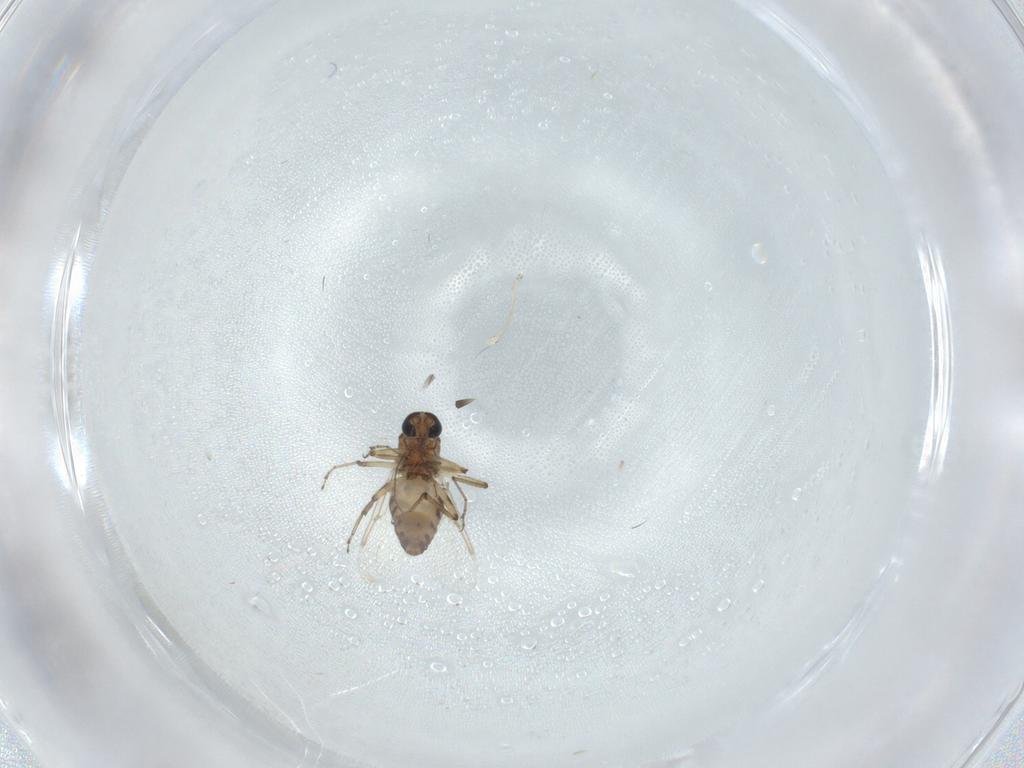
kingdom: Animalia
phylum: Arthropoda
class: Insecta
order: Diptera
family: Ceratopogonidae
